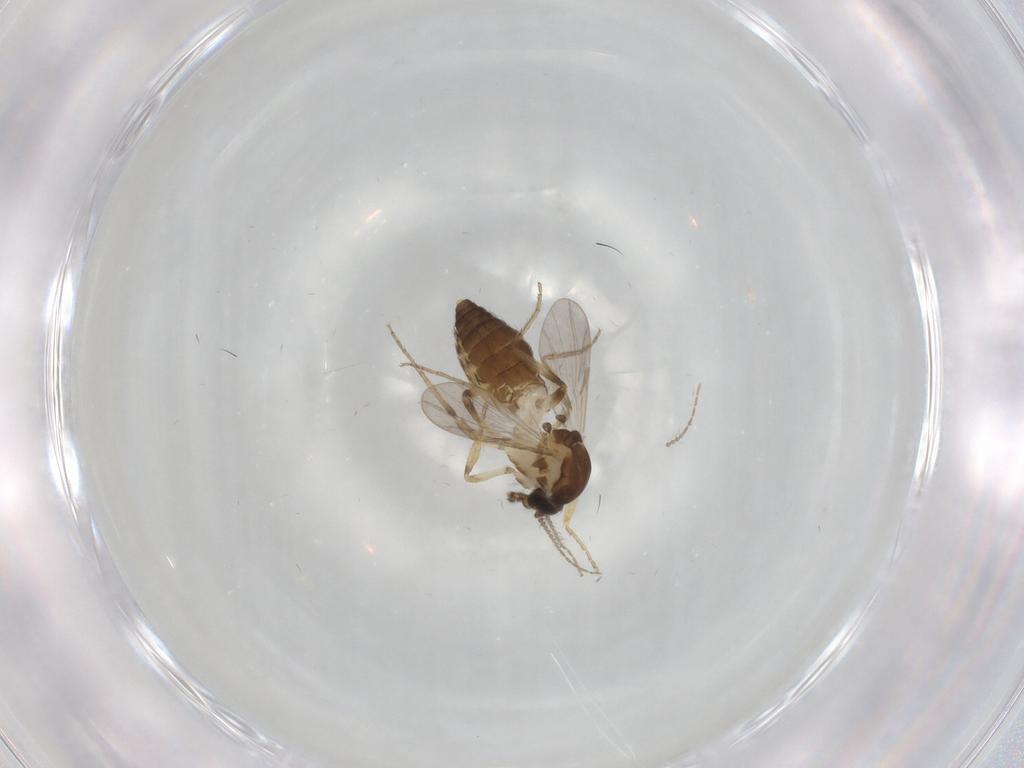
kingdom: Animalia
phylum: Arthropoda
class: Insecta
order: Diptera
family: Ceratopogonidae
